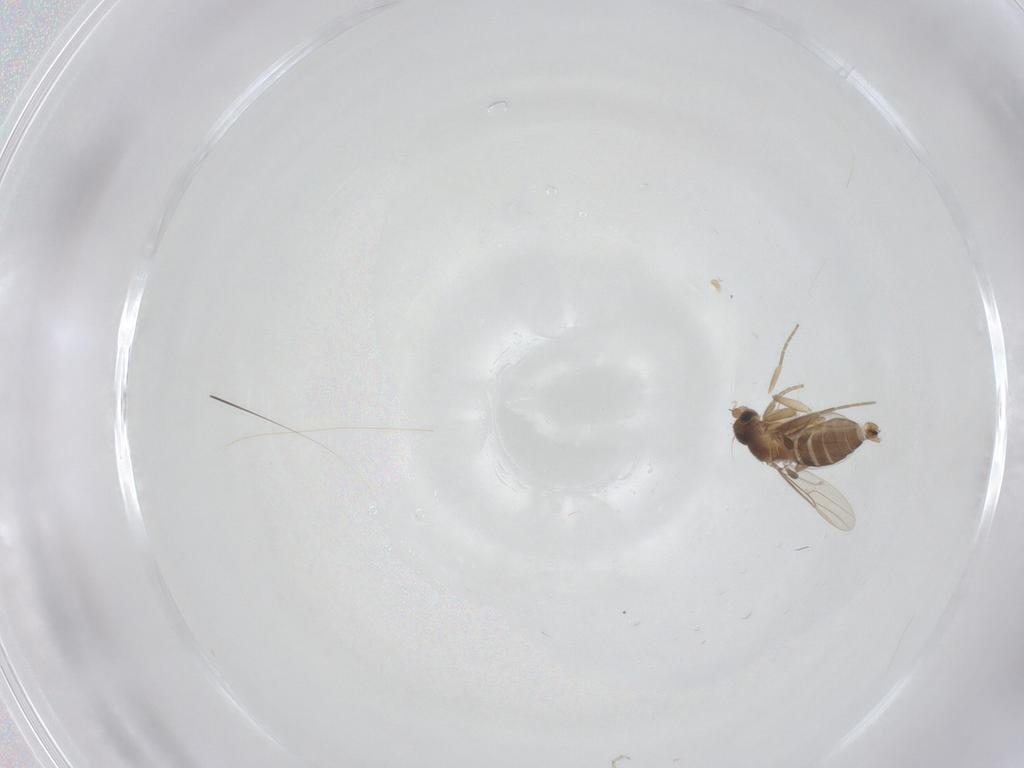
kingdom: Animalia
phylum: Arthropoda
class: Insecta
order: Diptera
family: Phoridae
